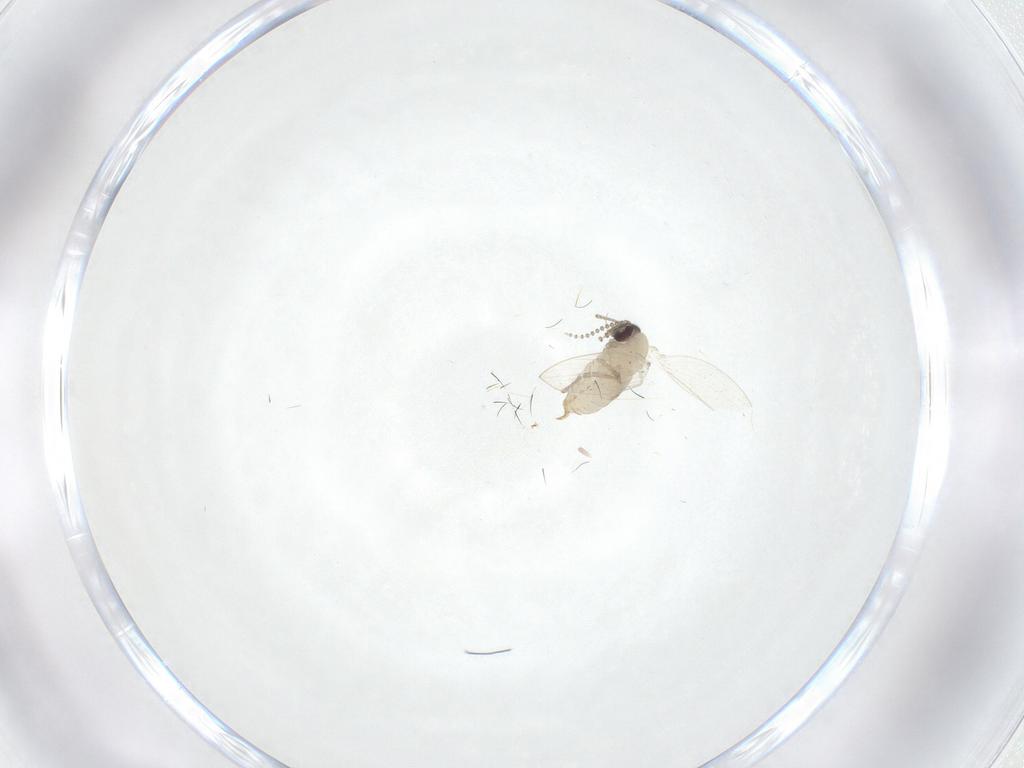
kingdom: Animalia
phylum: Arthropoda
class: Insecta
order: Diptera
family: Psychodidae
